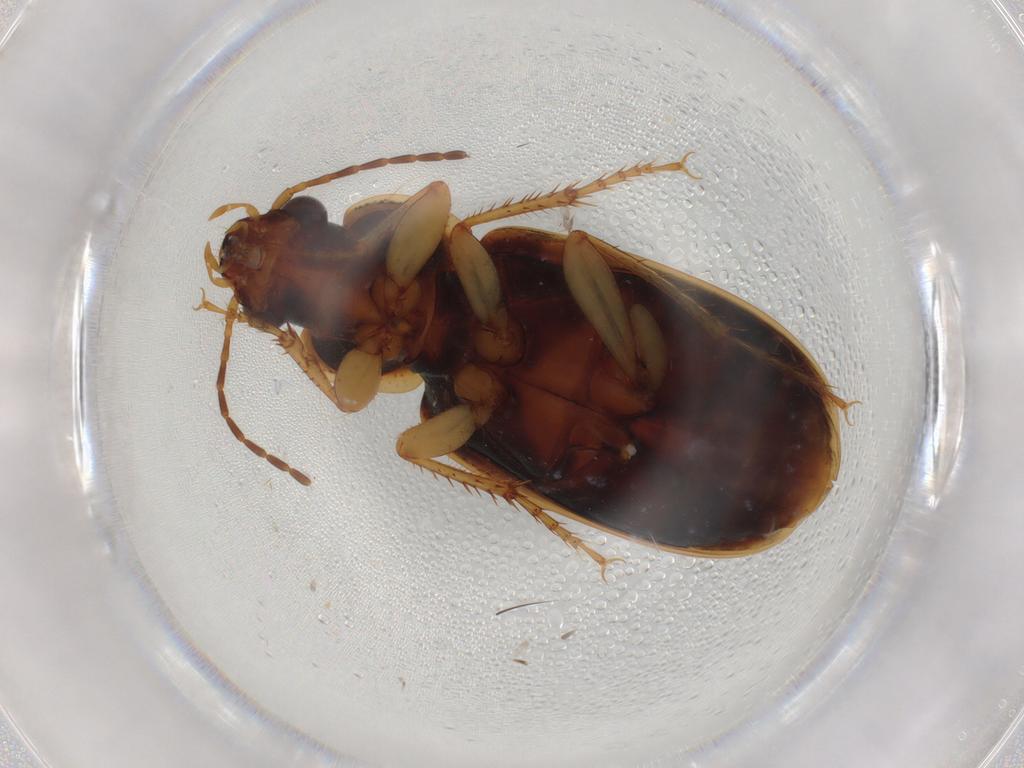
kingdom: Animalia
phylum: Arthropoda
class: Insecta
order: Coleoptera
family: Carabidae
